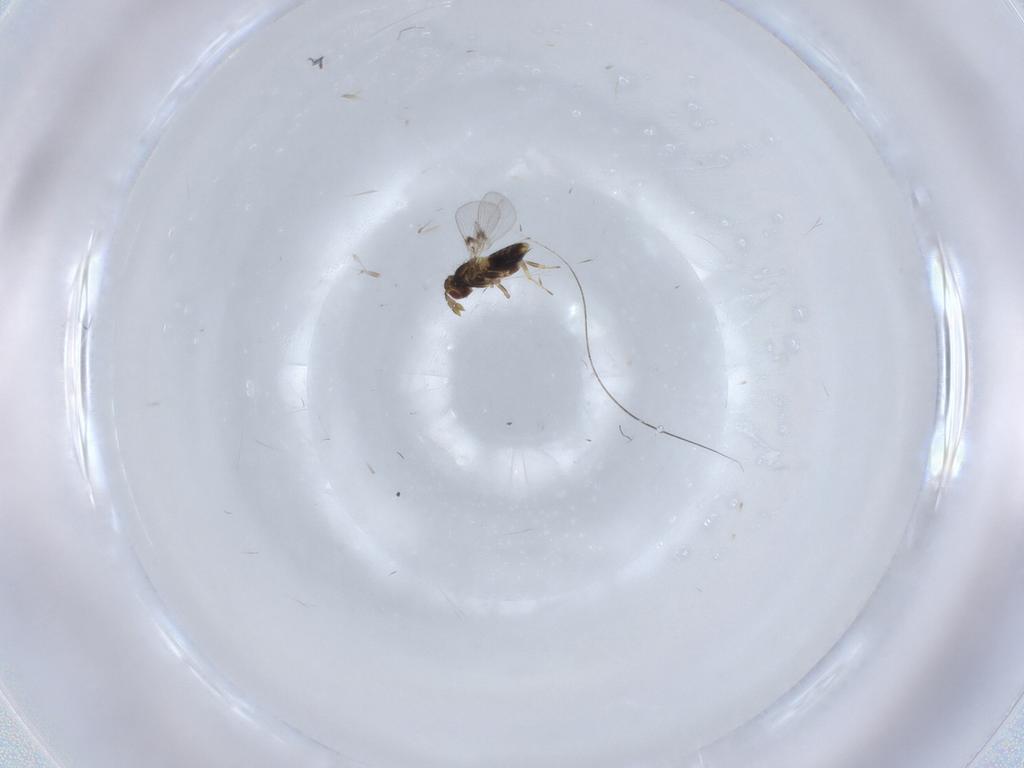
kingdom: Animalia
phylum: Arthropoda
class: Insecta
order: Hymenoptera
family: Trichogrammatidae
